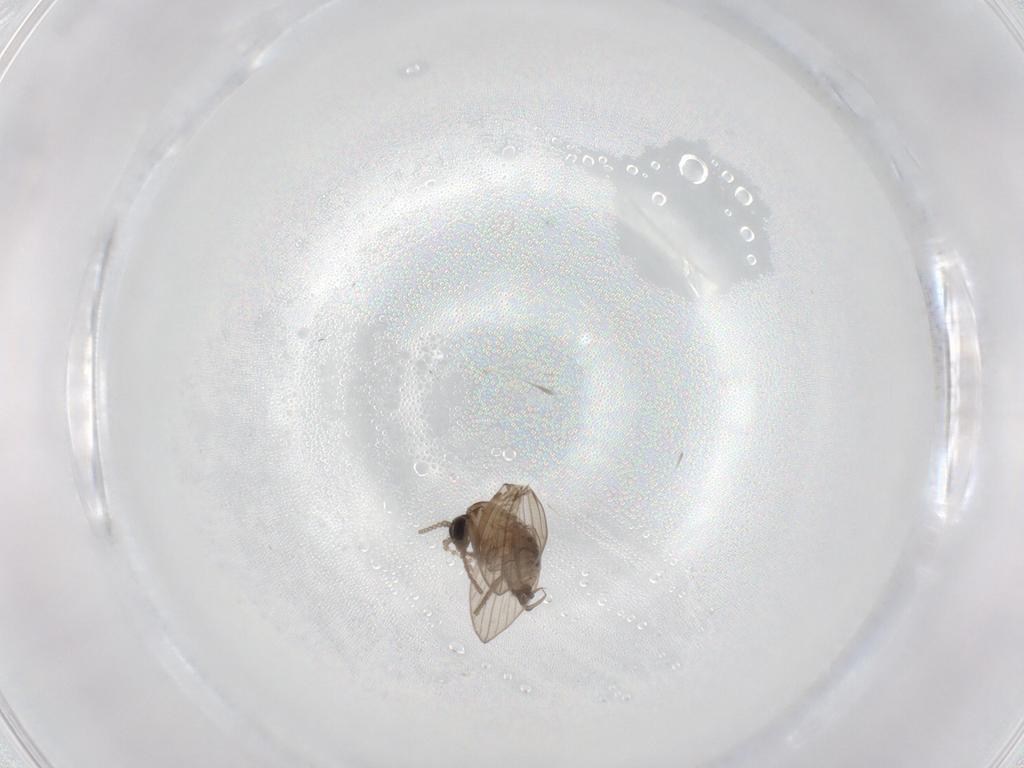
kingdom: Animalia
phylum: Arthropoda
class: Insecta
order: Diptera
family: Psychodidae
